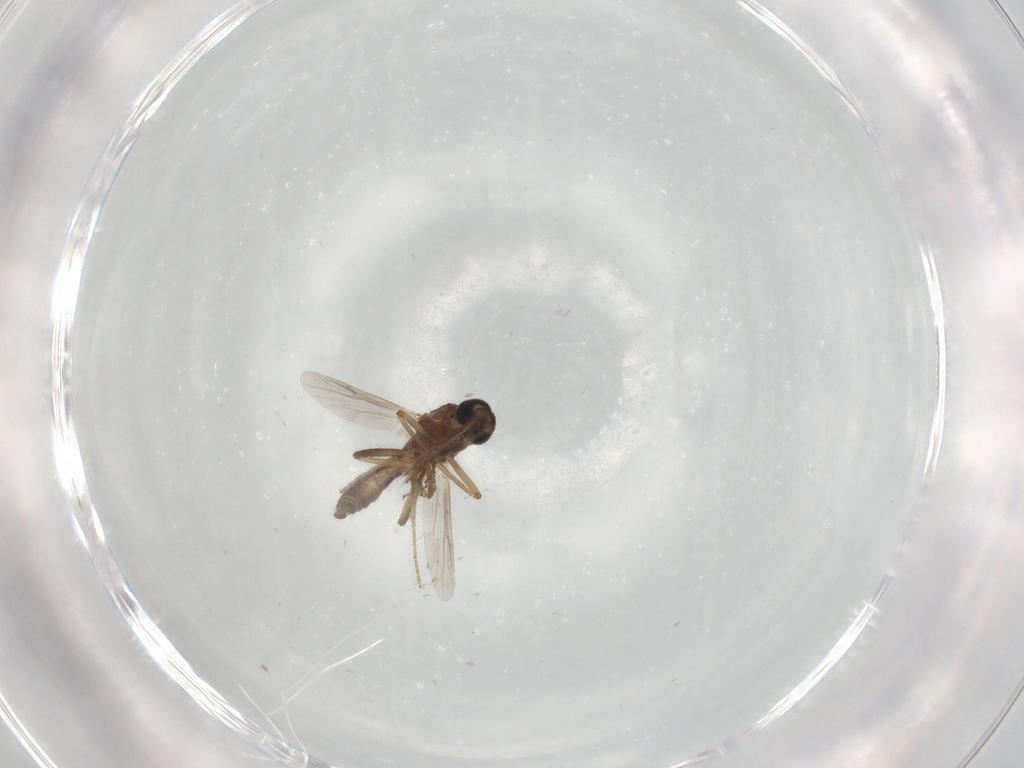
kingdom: Animalia
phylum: Arthropoda
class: Insecta
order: Diptera
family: Ceratopogonidae
